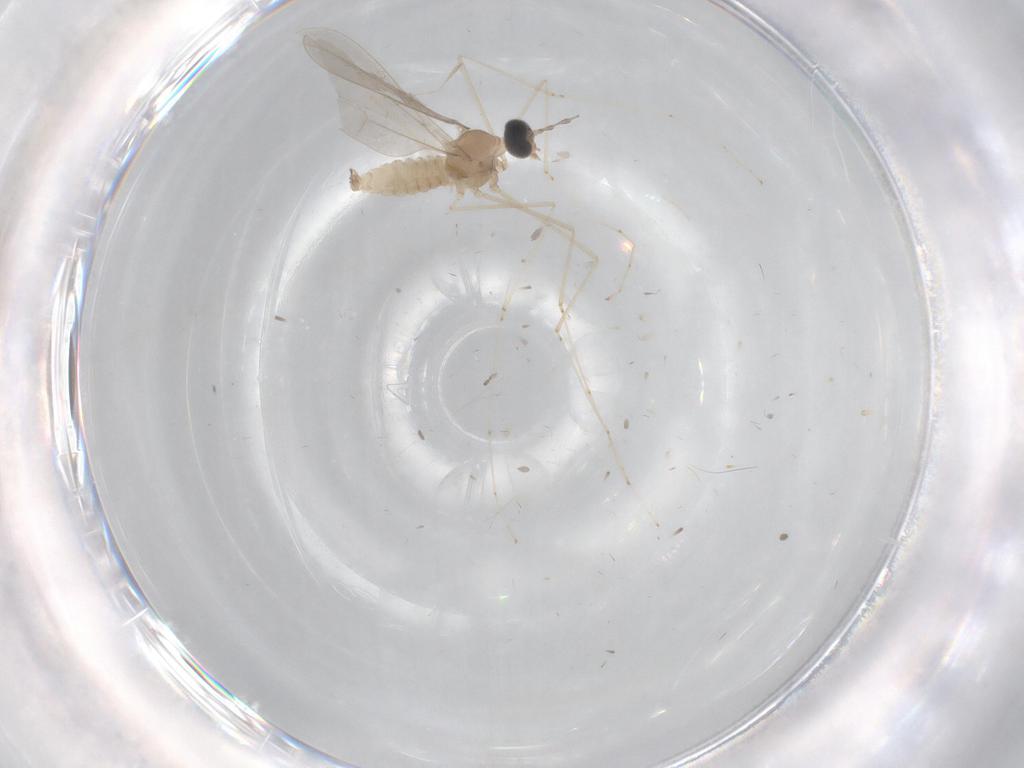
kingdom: Animalia
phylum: Arthropoda
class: Insecta
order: Diptera
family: Cecidomyiidae
